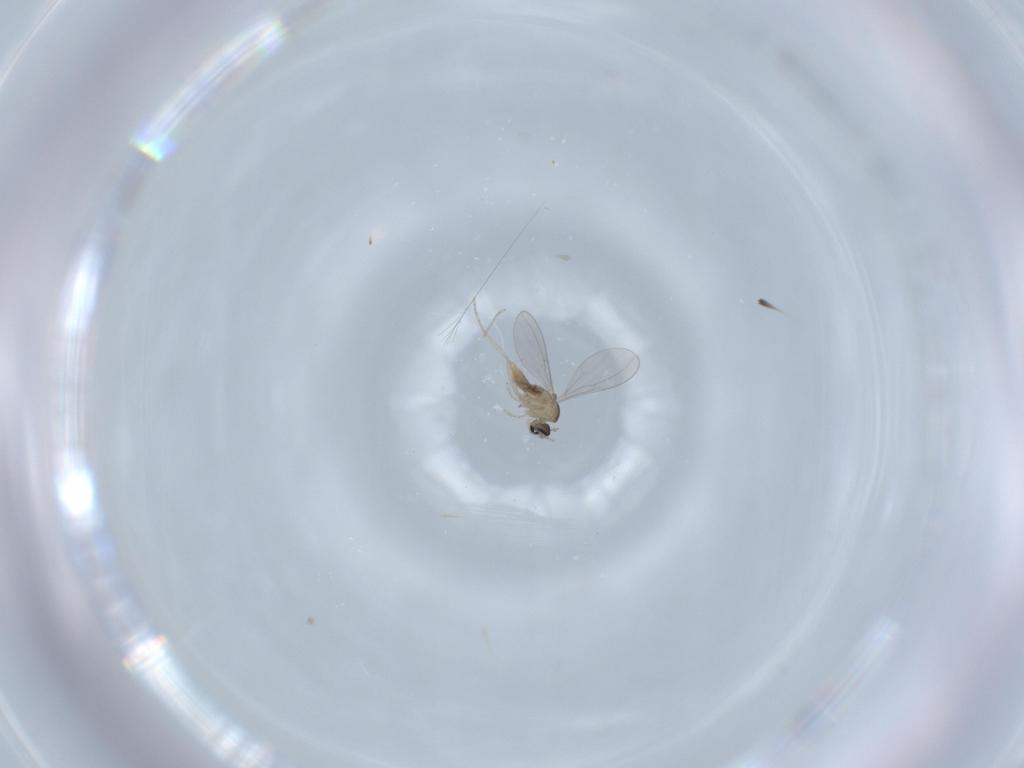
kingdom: Animalia
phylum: Arthropoda
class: Insecta
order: Diptera
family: Cecidomyiidae
